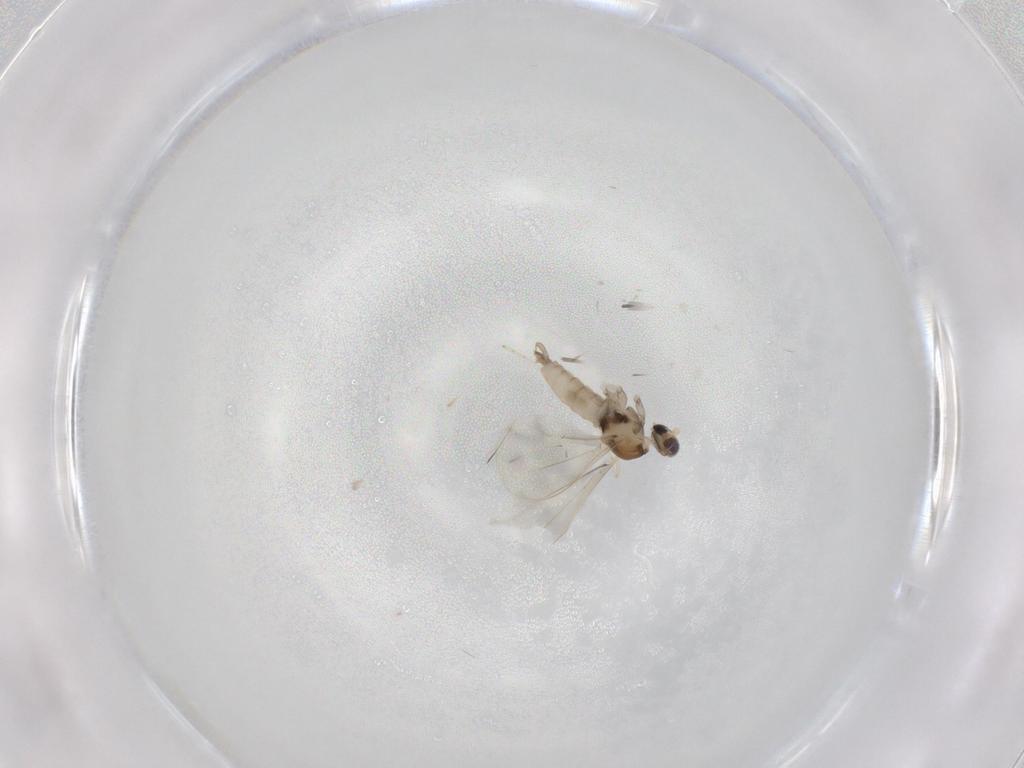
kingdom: Animalia
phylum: Arthropoda
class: Insecta
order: Diptera
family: Cecidomyiidae
